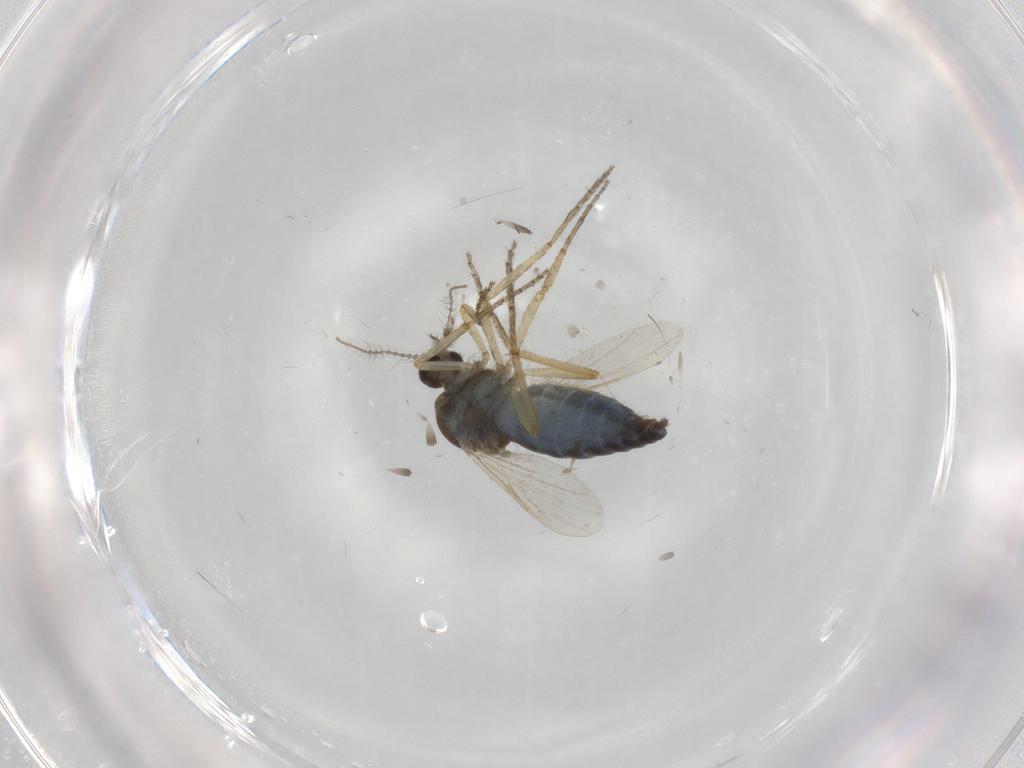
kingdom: Animalia
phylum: Arthropoda
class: Insecta
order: Diptera
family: Ceratopogonidae
